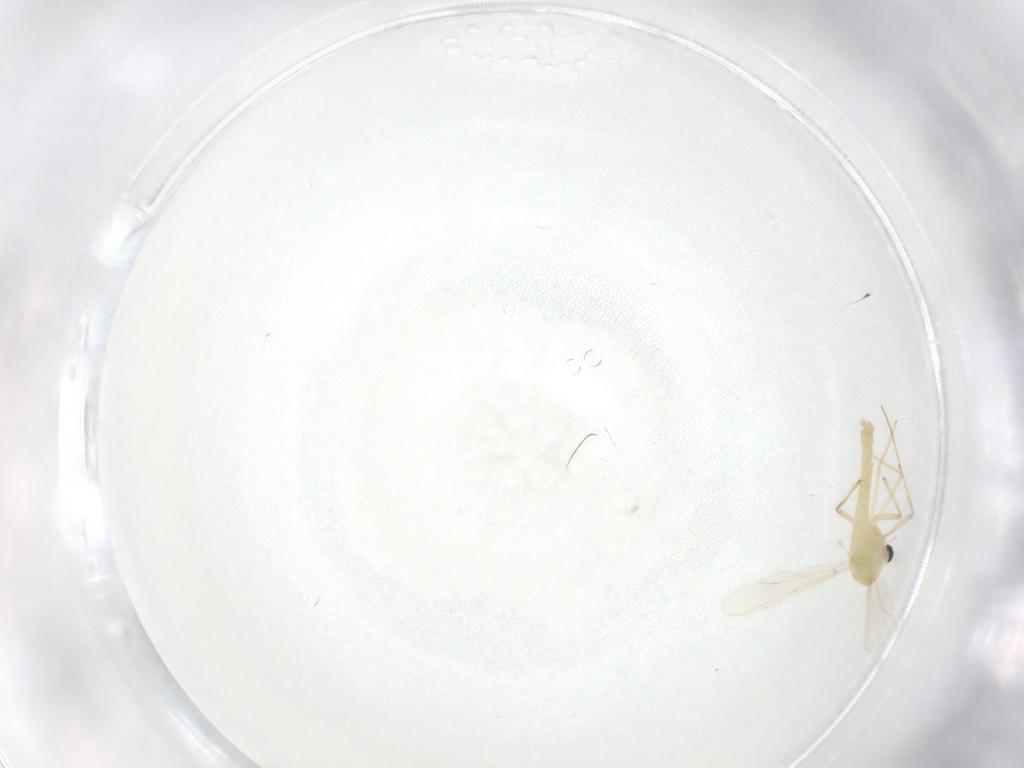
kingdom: Animalia
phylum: Arthropoda
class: Insecta
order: Diptera
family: Chironomidae
